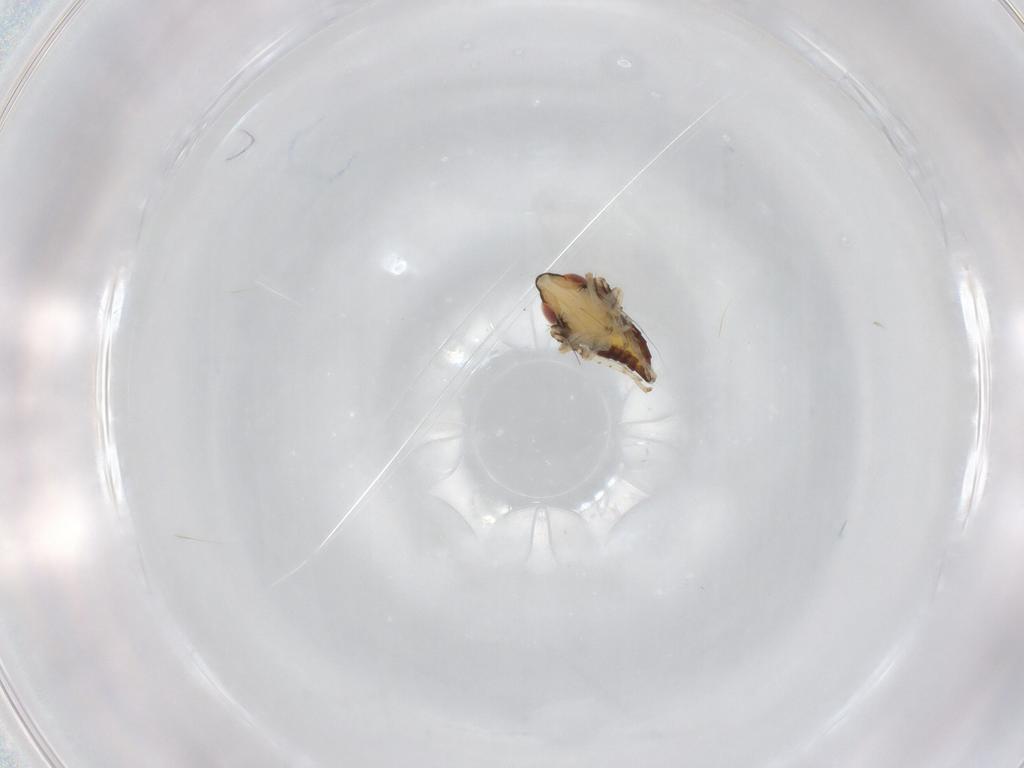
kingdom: Animalia
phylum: Arthropoda
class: Insecta
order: Hemiptera
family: Cicadellidae
